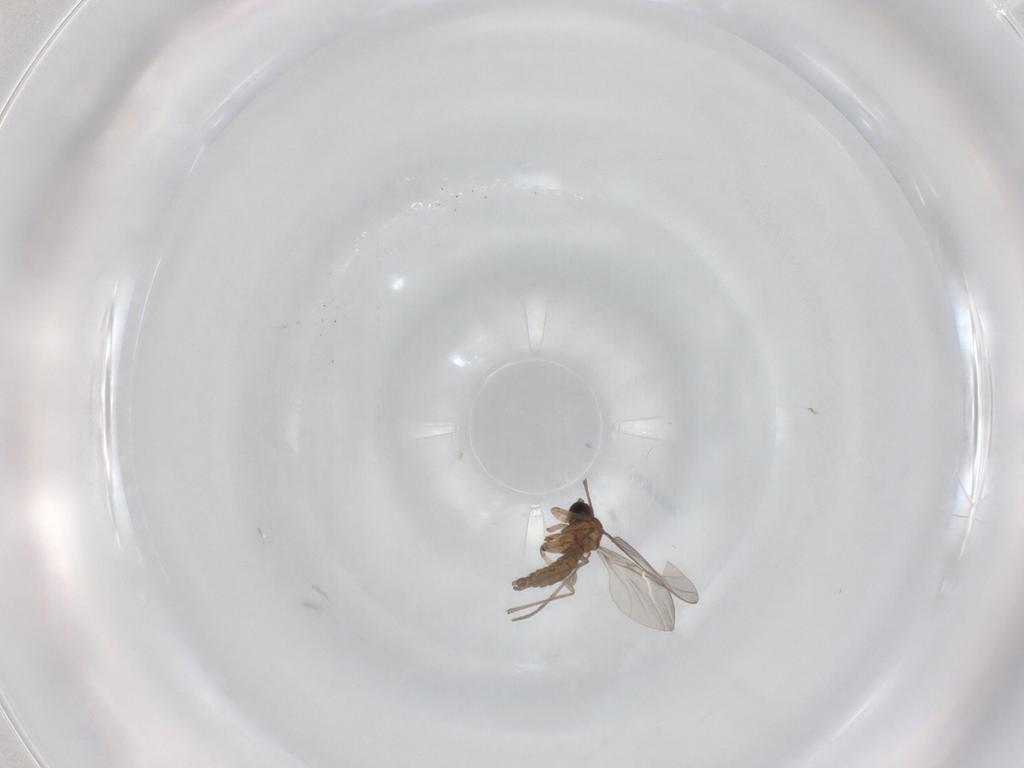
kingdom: Animalia
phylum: Arthropoda
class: Insecta
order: Diptera
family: Sciaridae
